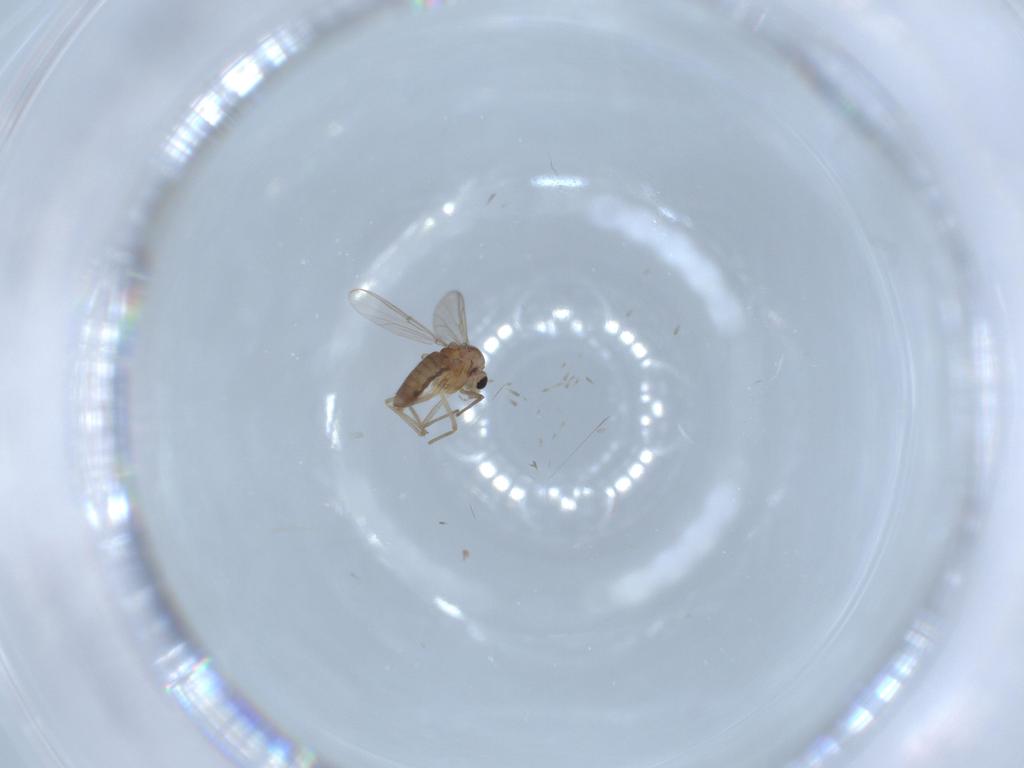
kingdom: Animalia
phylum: Arthropoda
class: Insecta
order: Diptera
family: Chironomidae
